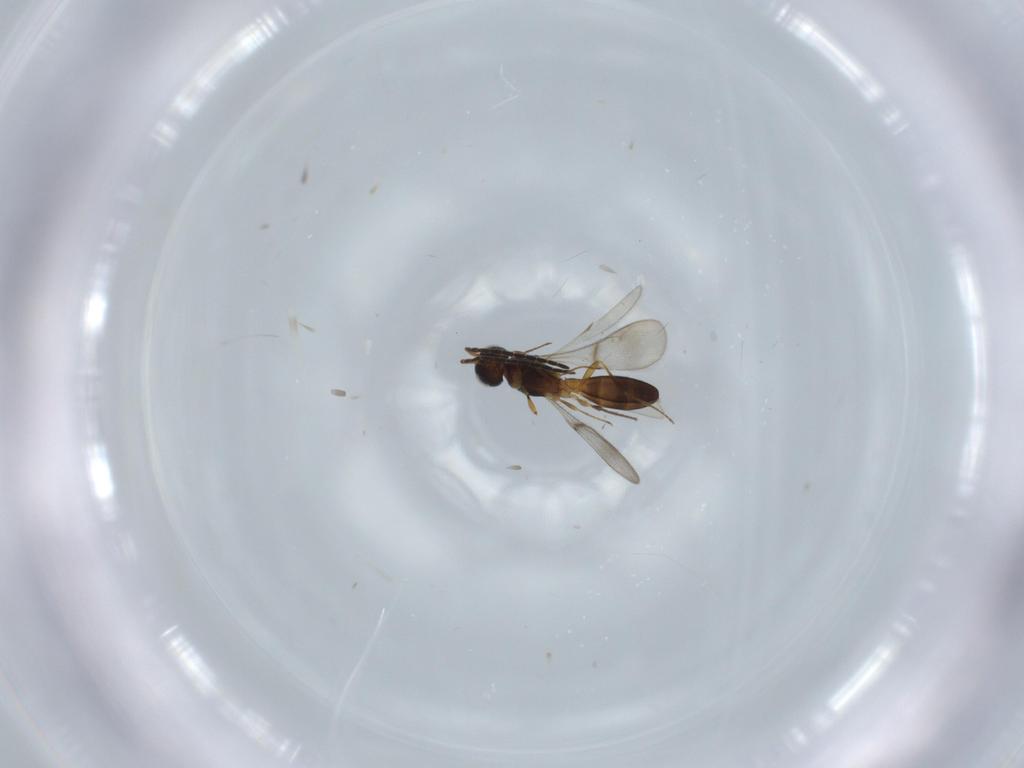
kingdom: Animalia
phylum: Arthropoda
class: Insecta
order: Hymenoptera
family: Scelionidae
